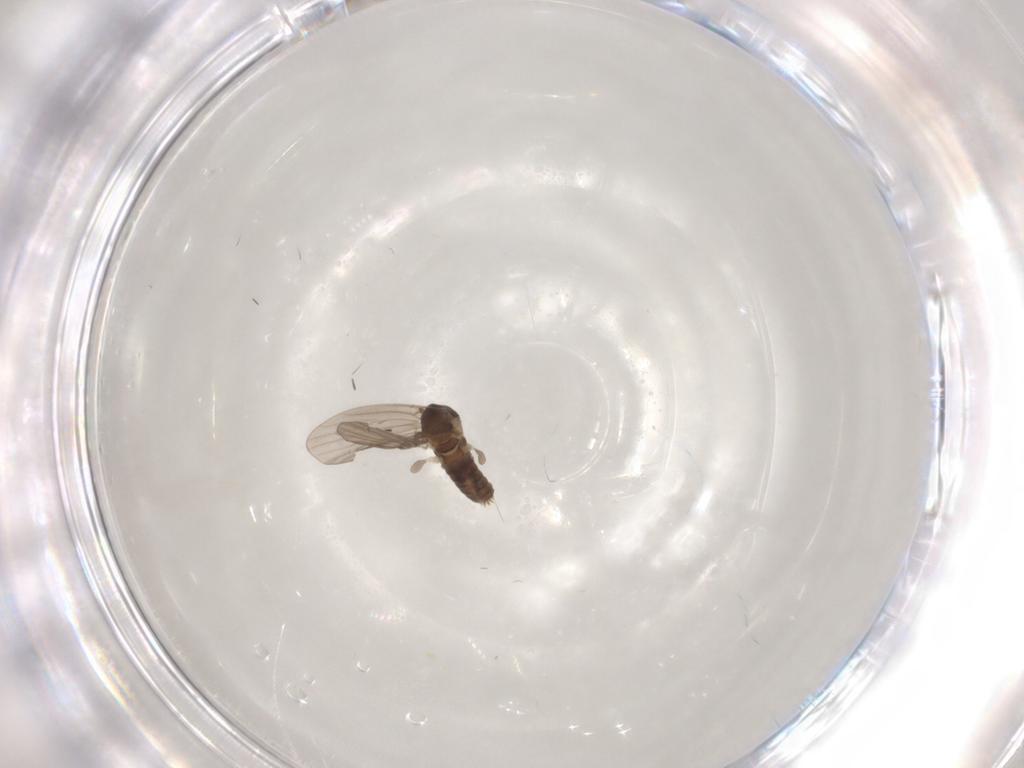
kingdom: Animalia
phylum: Arthropoda
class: Insecta
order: Diptera
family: Psychodidae
